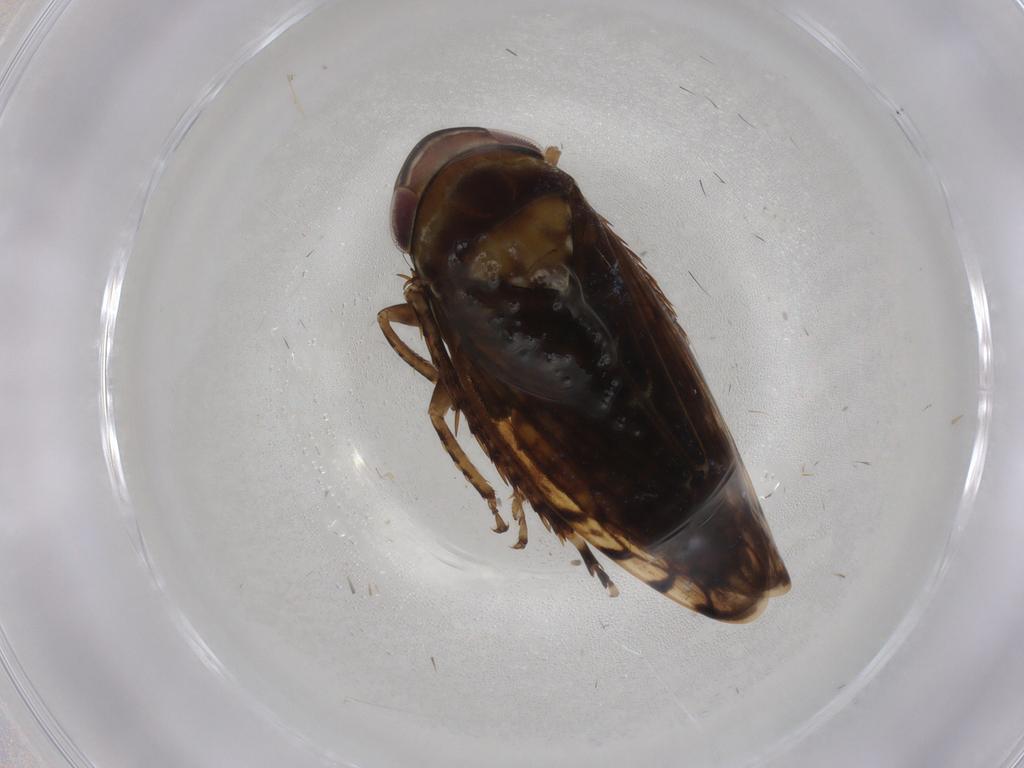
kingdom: Animalia
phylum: Arthropoda
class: Insecta
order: Hemiptera
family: Cicadellidae
